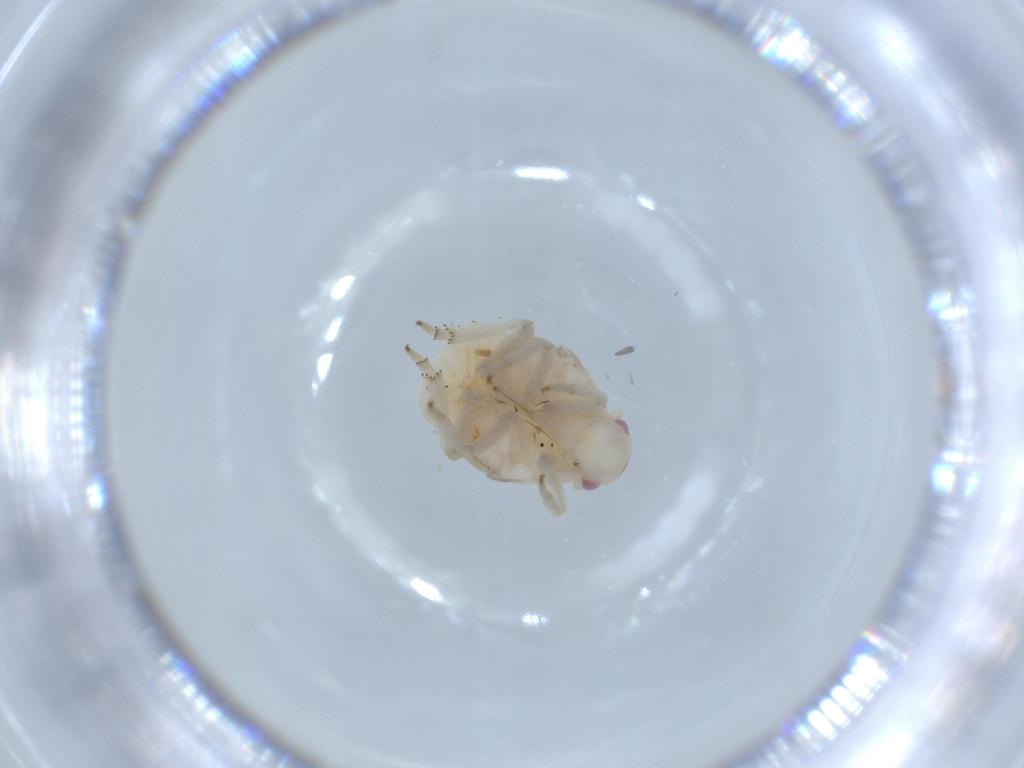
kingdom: Animalia
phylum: Arthropoda
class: Insecta
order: Hemiptera
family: Flatidae
